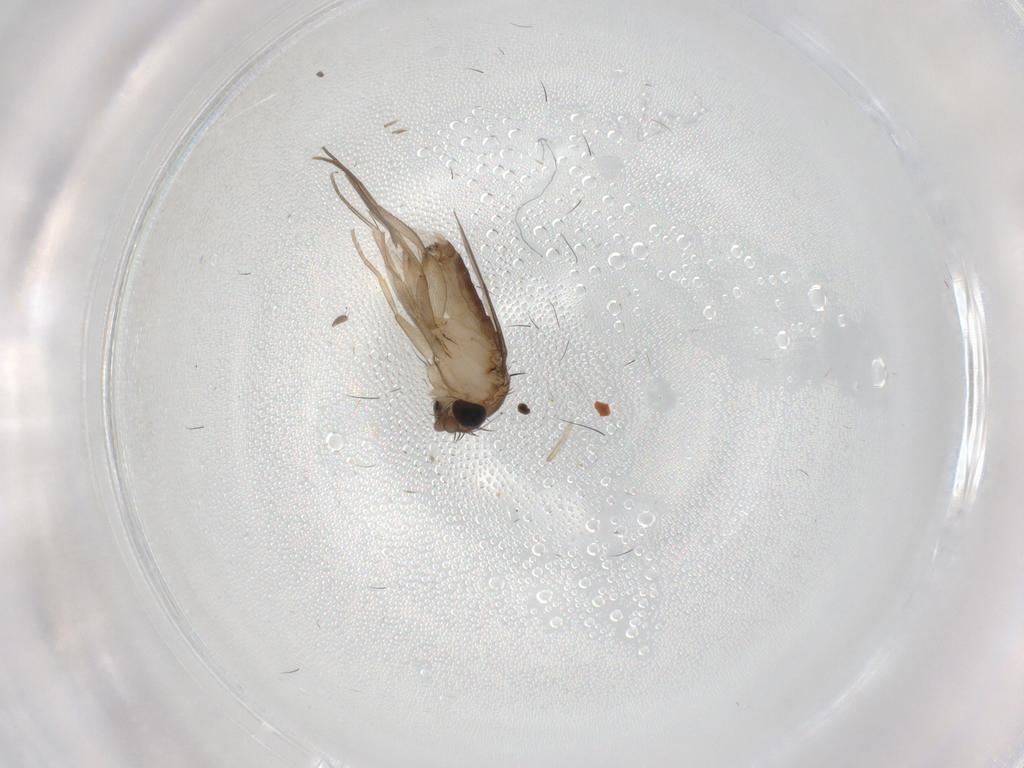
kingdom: Animalia
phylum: Arthropoda
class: Insecta
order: Diptera
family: Phoridae
